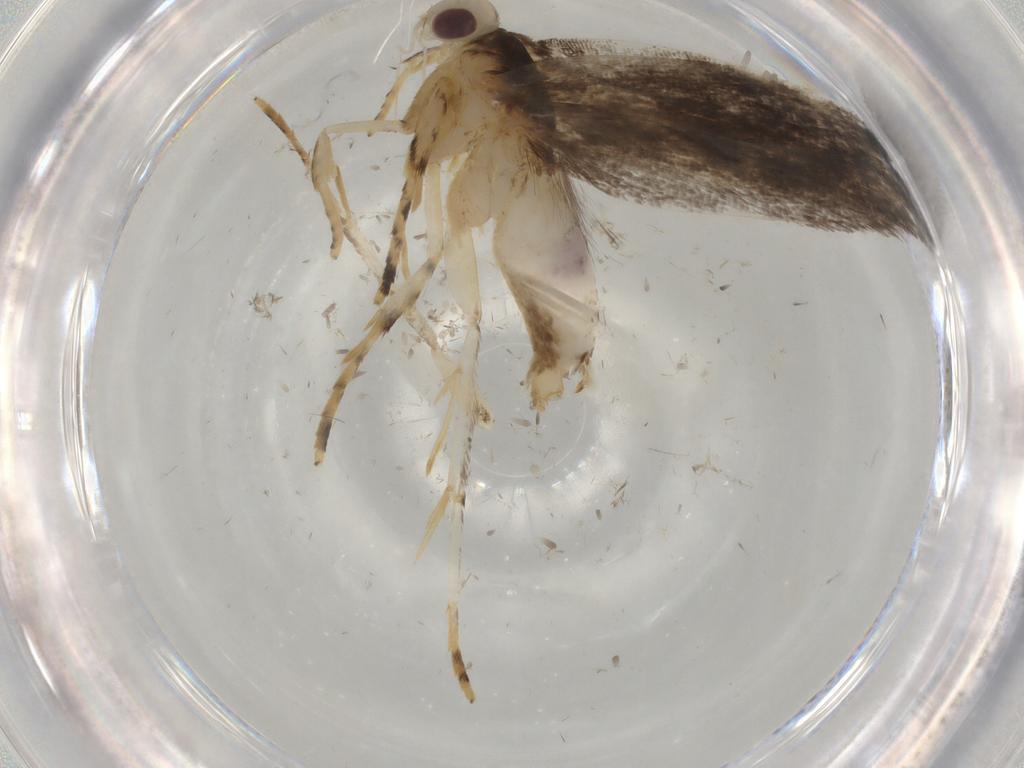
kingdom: Animalia
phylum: Arthropoda
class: Insecta
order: Lepidoptera
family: Gelechiidae
